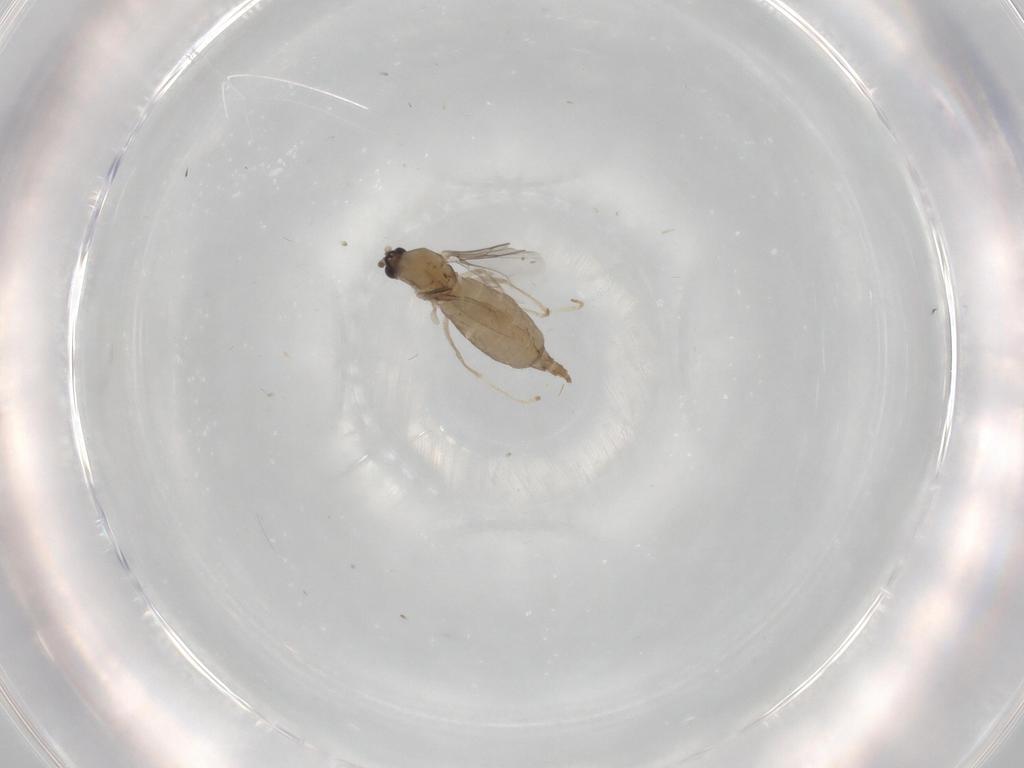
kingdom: Animalia
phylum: Arthropoda
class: Insecta
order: Diptera
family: Cecidomyiidae
